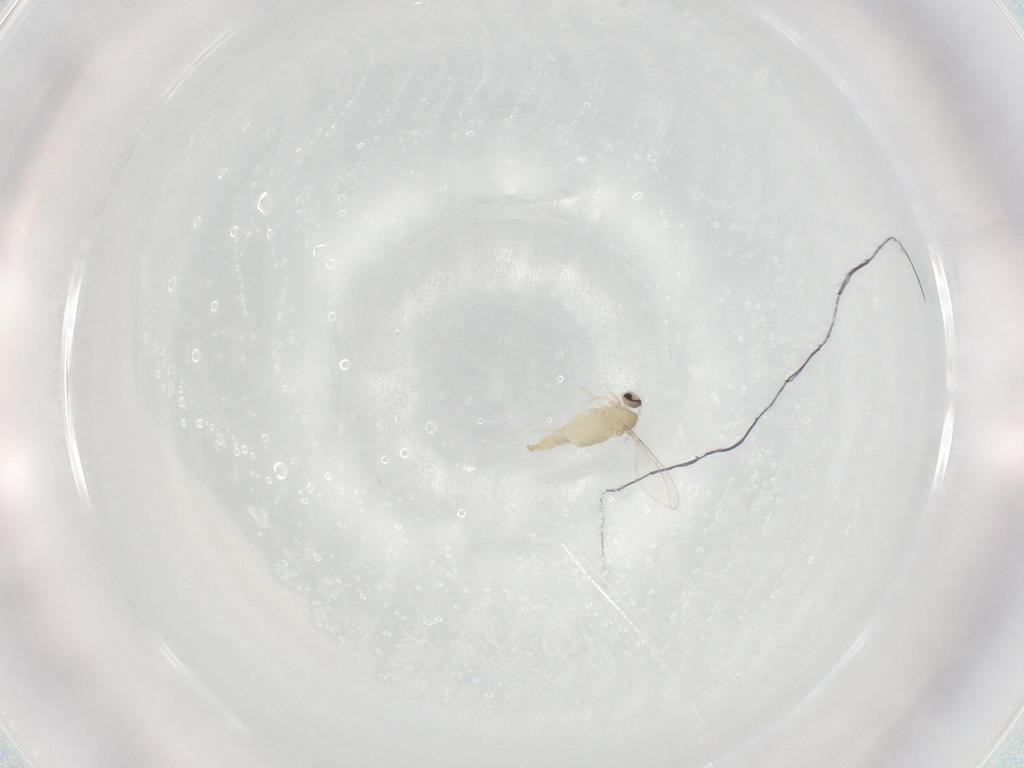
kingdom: Animalia
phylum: Arthropoda
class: Insecta
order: Diptera
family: Cecidomyiidae
